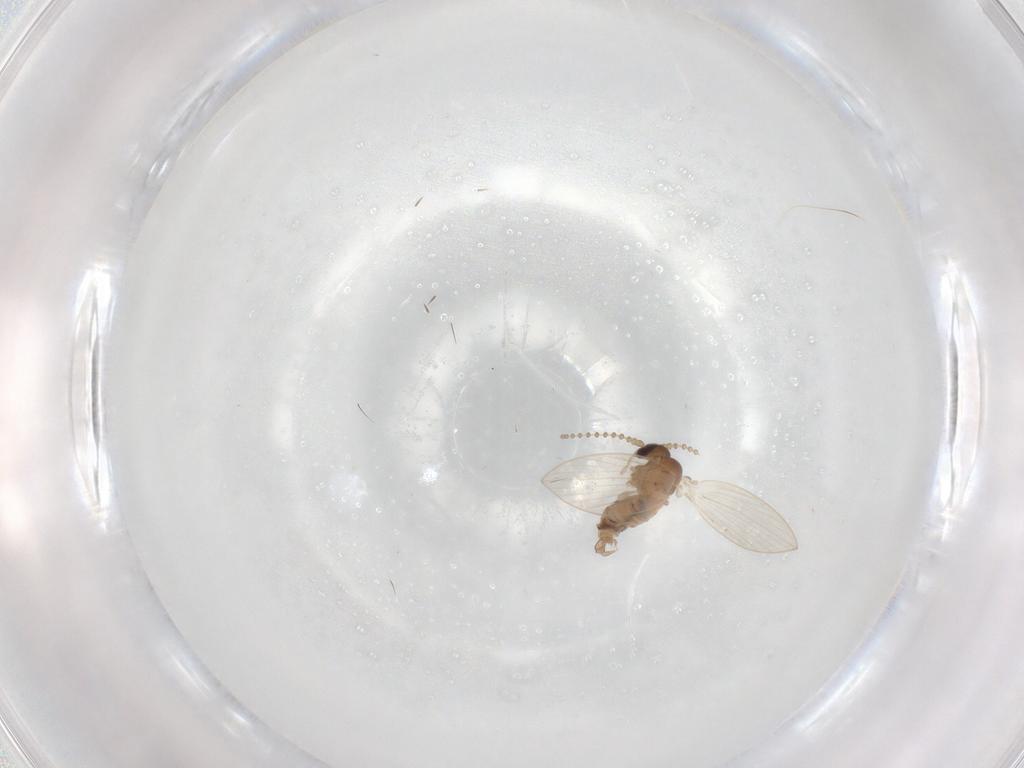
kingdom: Animalia
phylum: Arthropoda
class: Insecta
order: Diptera
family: Psychodidae
